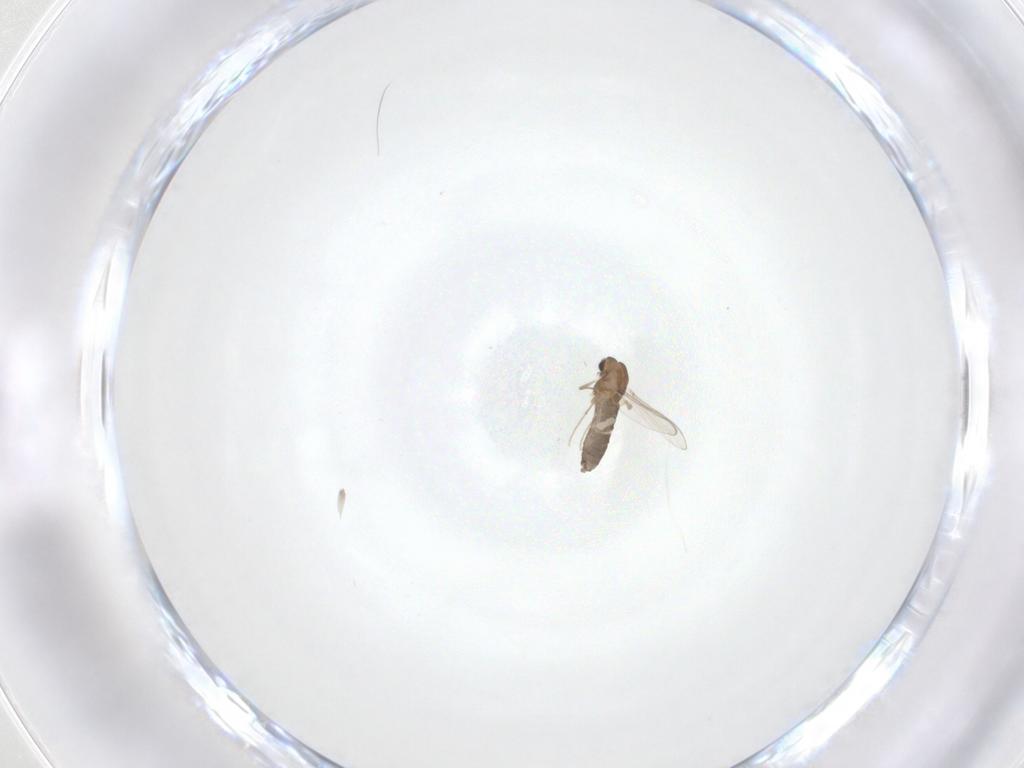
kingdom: Animalia
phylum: Arthropoda
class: Insecta
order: Diptera
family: Chironomidae
